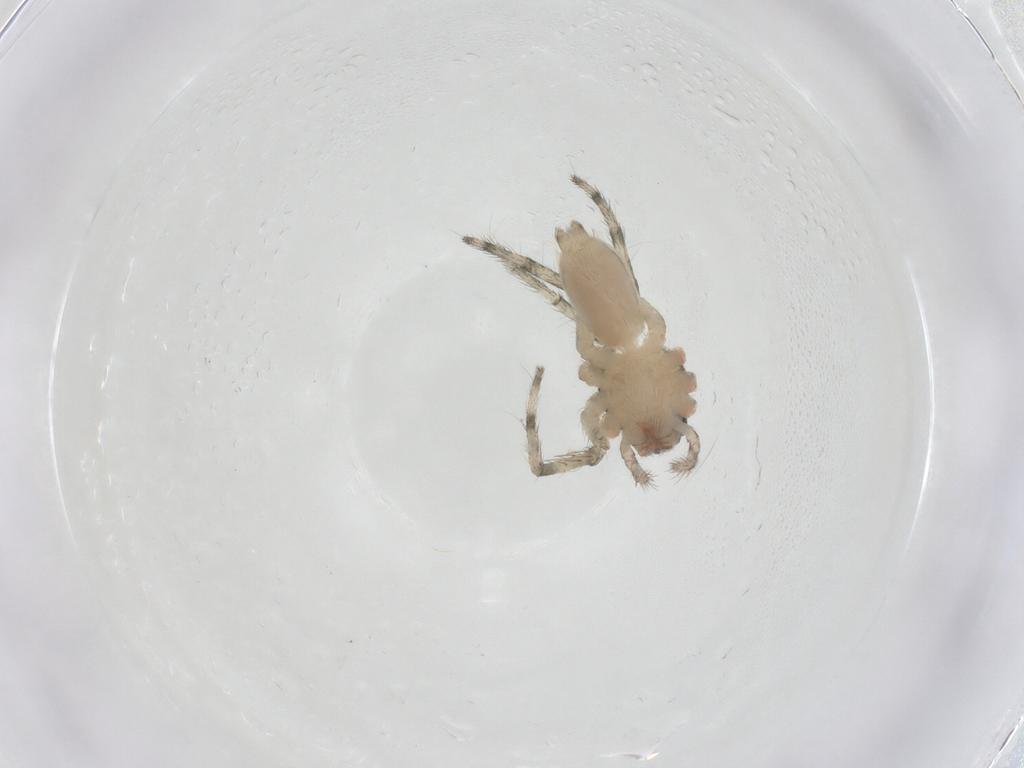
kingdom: Animalia
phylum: Arthropoda
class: Arachnida
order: Araneae
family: Senoculidae
